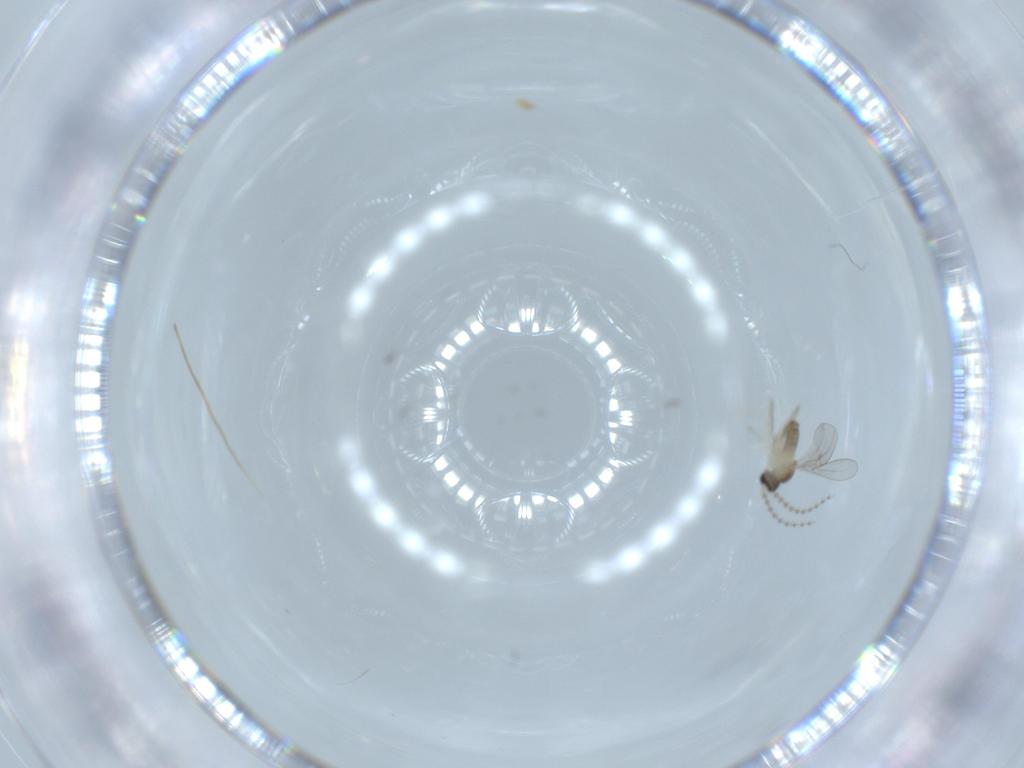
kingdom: Animalia
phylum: Arthropoda
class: Insecta
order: Diptera
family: Cecidomyiidae
